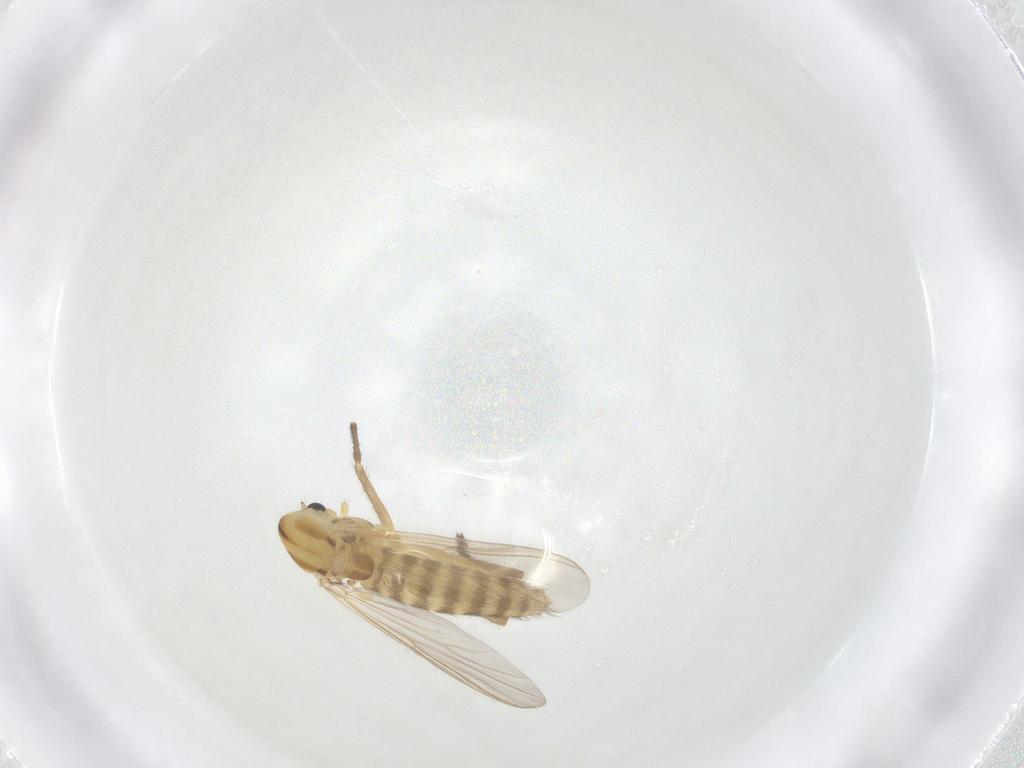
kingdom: Animalia
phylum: Arthropoda
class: Insecta
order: Diptera
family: Chironomidae
